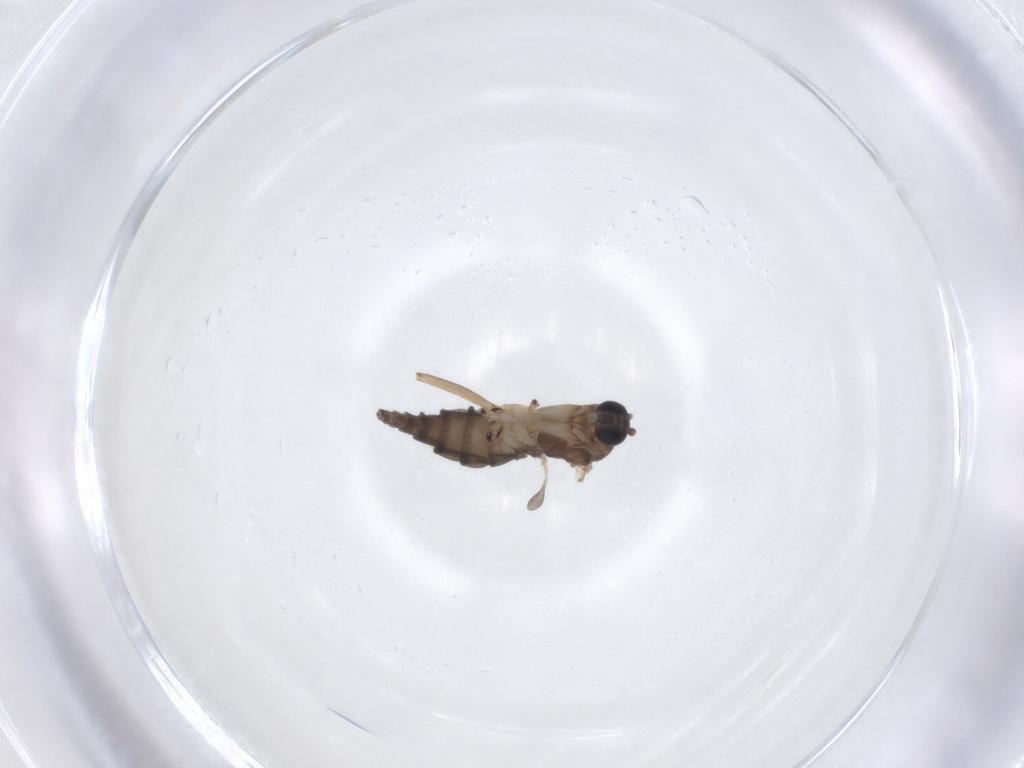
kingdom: Animalia
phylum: Arthropoda
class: Insecta
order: Diptera
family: Sciaridae
